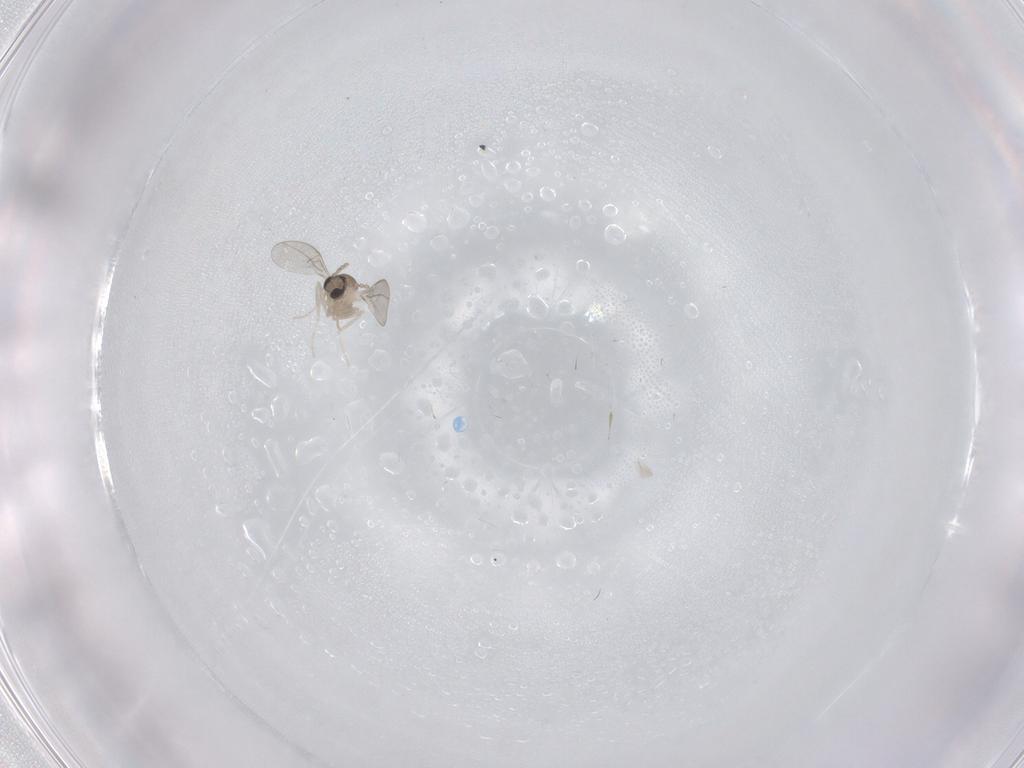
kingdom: Animalia
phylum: Arthropoda
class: Insecta
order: Diptera
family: Cecidomyiidae
